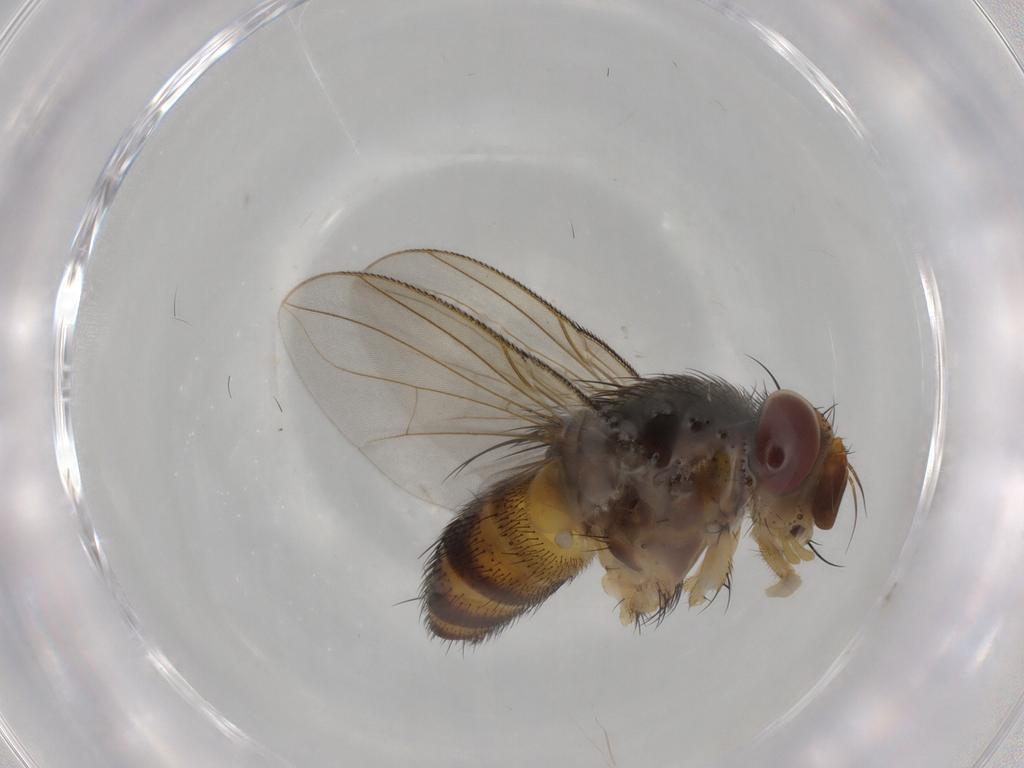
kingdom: Animalia
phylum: Arthropoda
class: Insecta
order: Diptera
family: Tachinidae
